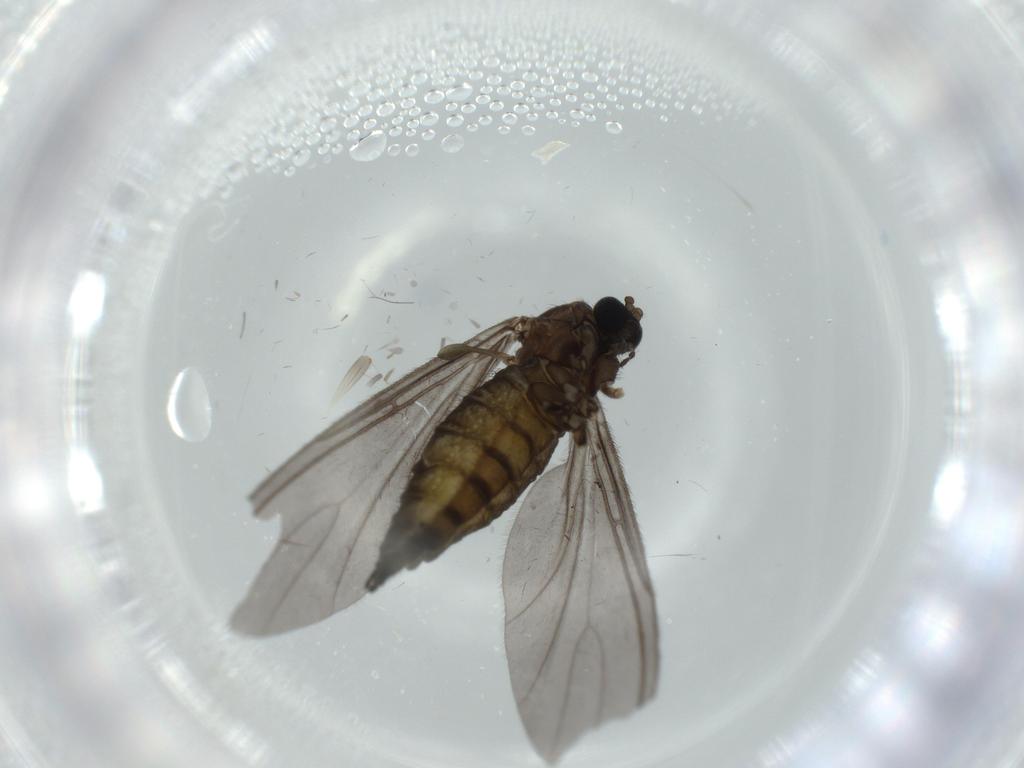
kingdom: Animalia
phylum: Arthropoda
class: Insecta
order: Diptera
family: Sciaridae
